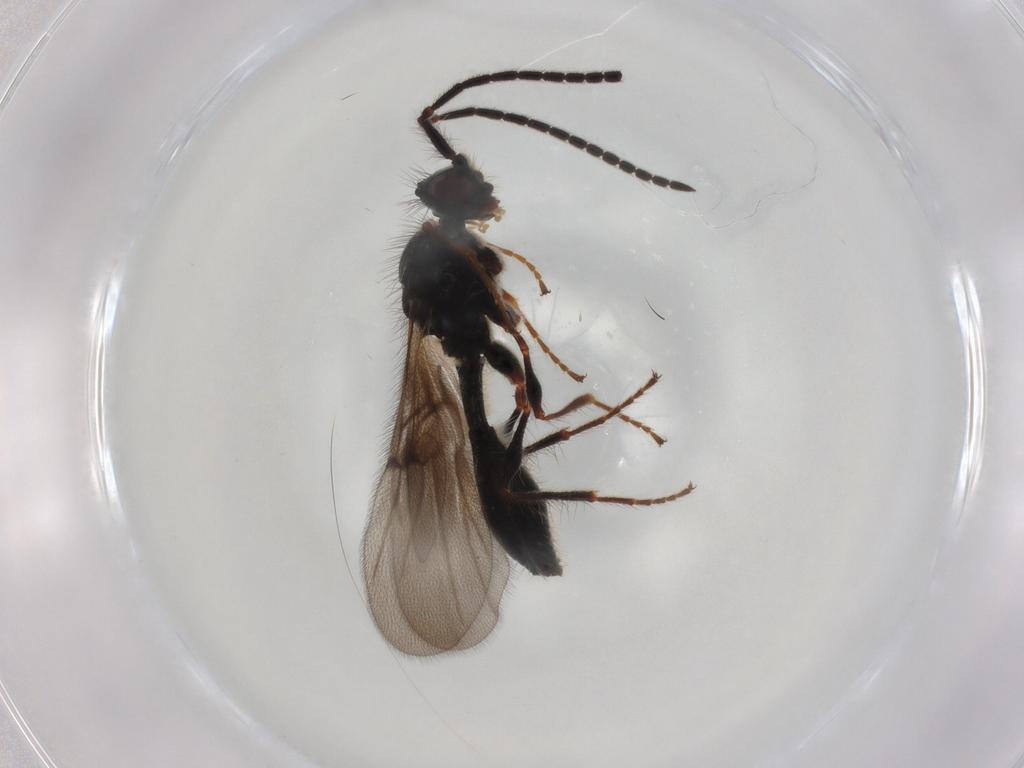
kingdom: Animalia
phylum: Arthropoda
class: Insecta
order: Hymenoptera
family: Diapriidae
